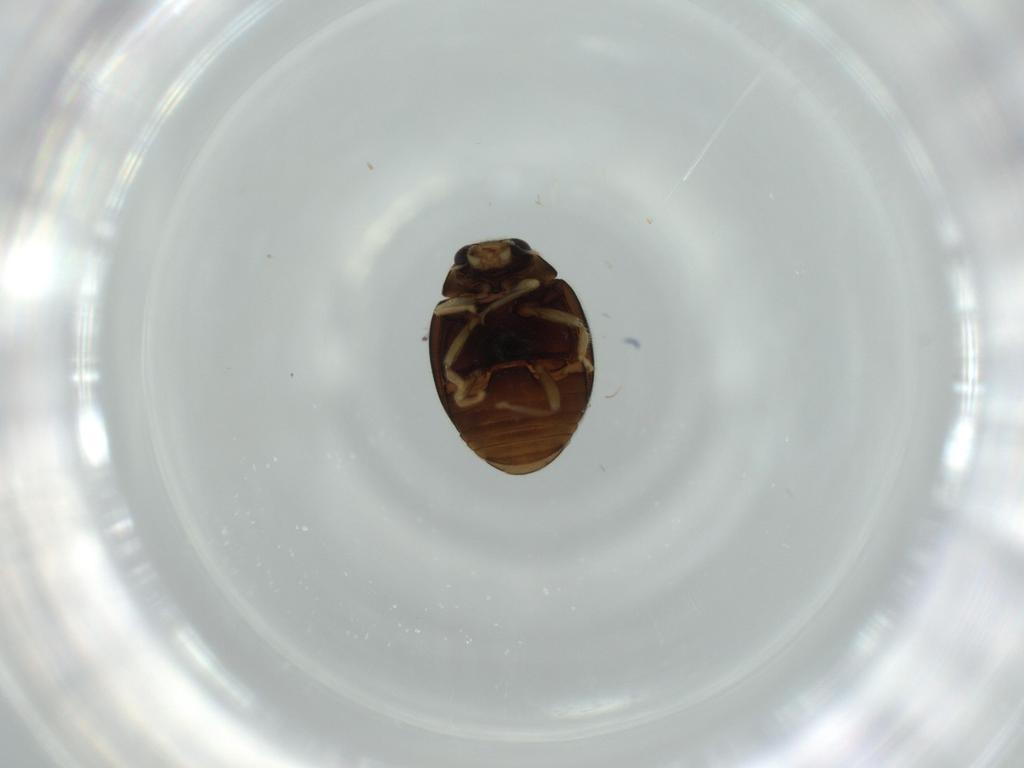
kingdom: Animalia
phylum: Arthropoda
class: Insecta
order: Coleoptera
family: Coccinellidae
